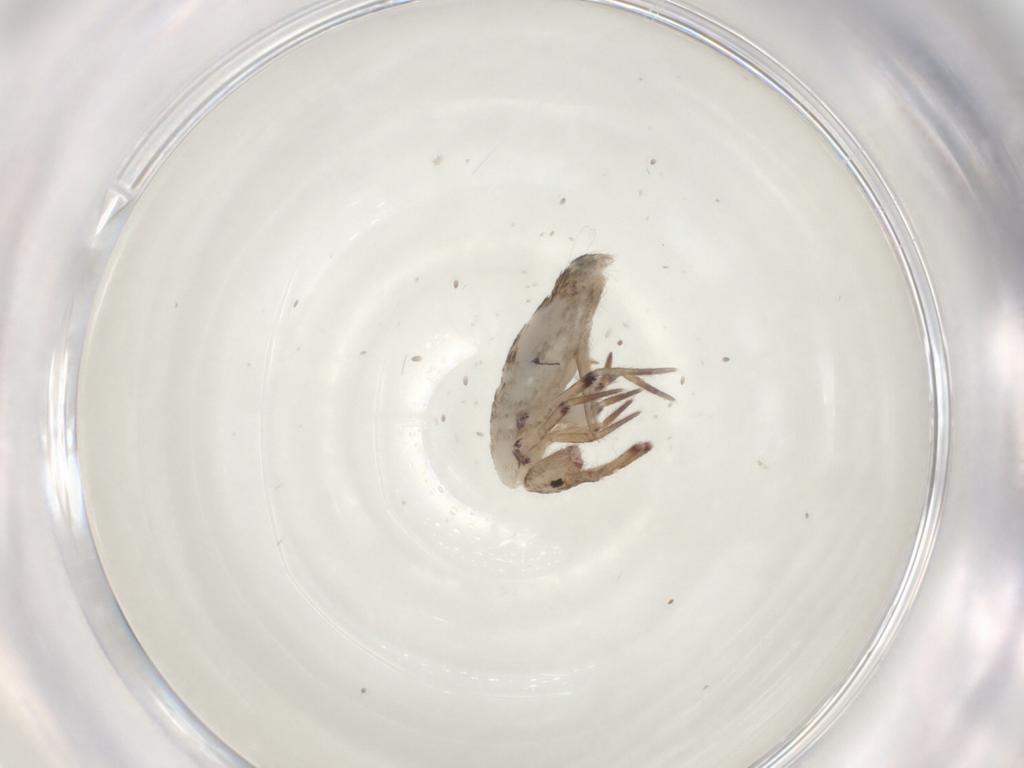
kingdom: Animalia
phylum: Arthropoda
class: Collembola
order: Entomobryomorpha
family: Entomobryidae
